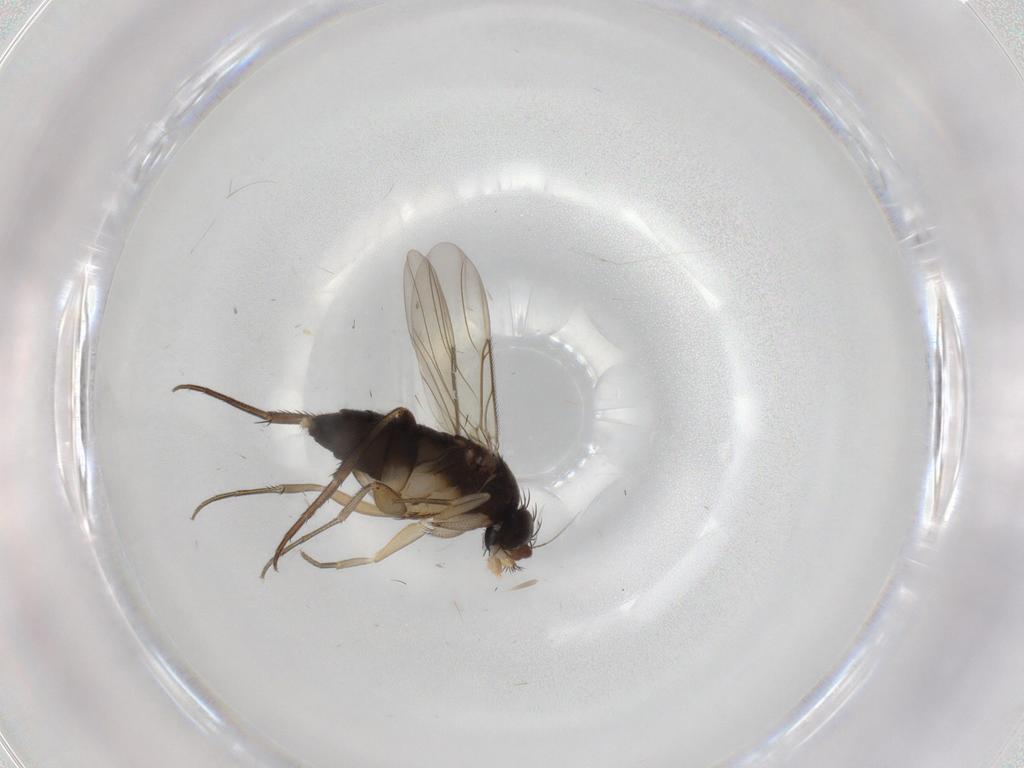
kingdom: Animalia
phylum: Arthropoda
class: Insecta
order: Diptera
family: Phoridae
